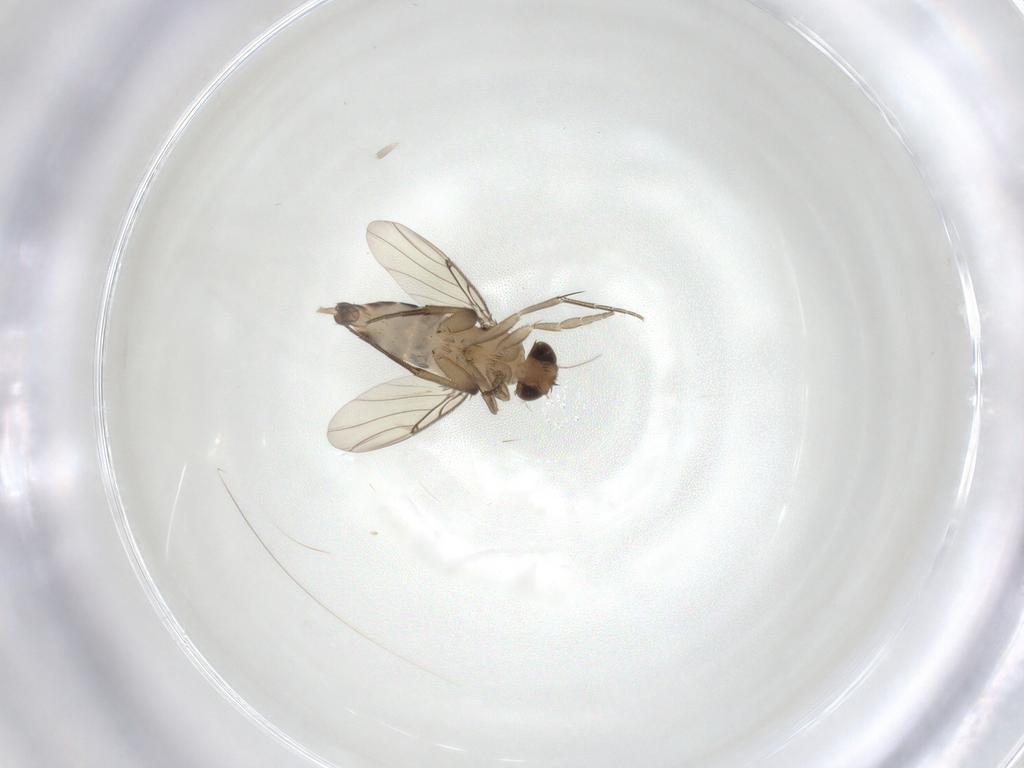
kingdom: Animalia
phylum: Arthropoda
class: Insecta
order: Diptera
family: Phoridae
